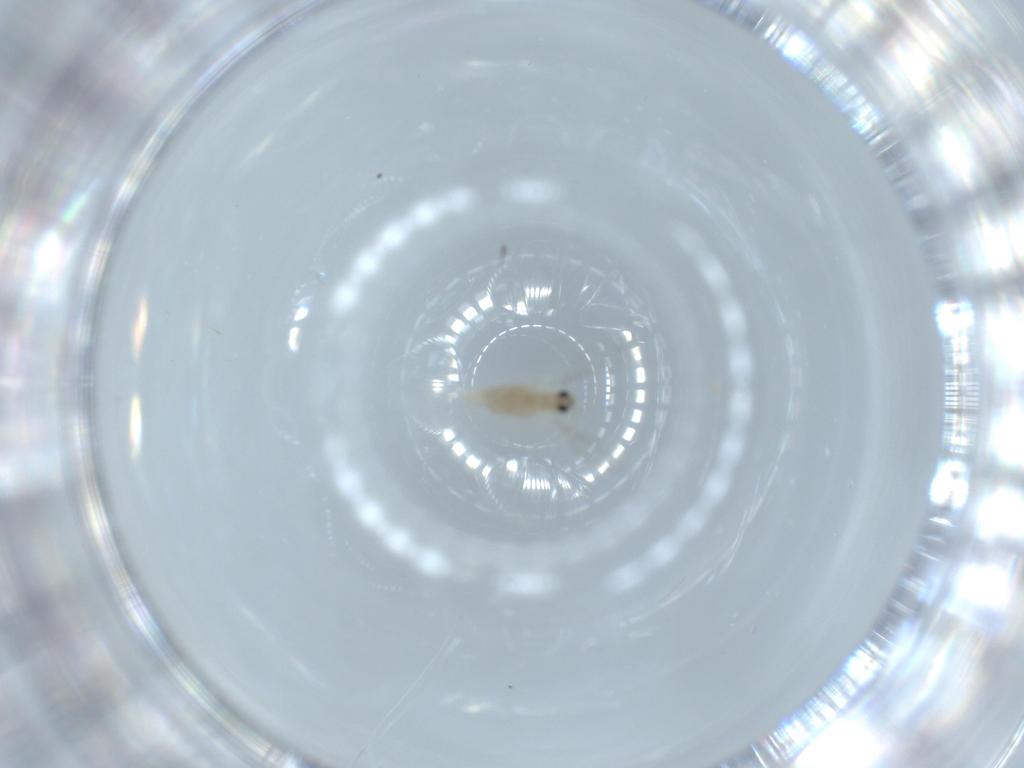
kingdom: Animalia
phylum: Arthropoda
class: Insecta
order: Diptera
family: Cecidomyiidae
